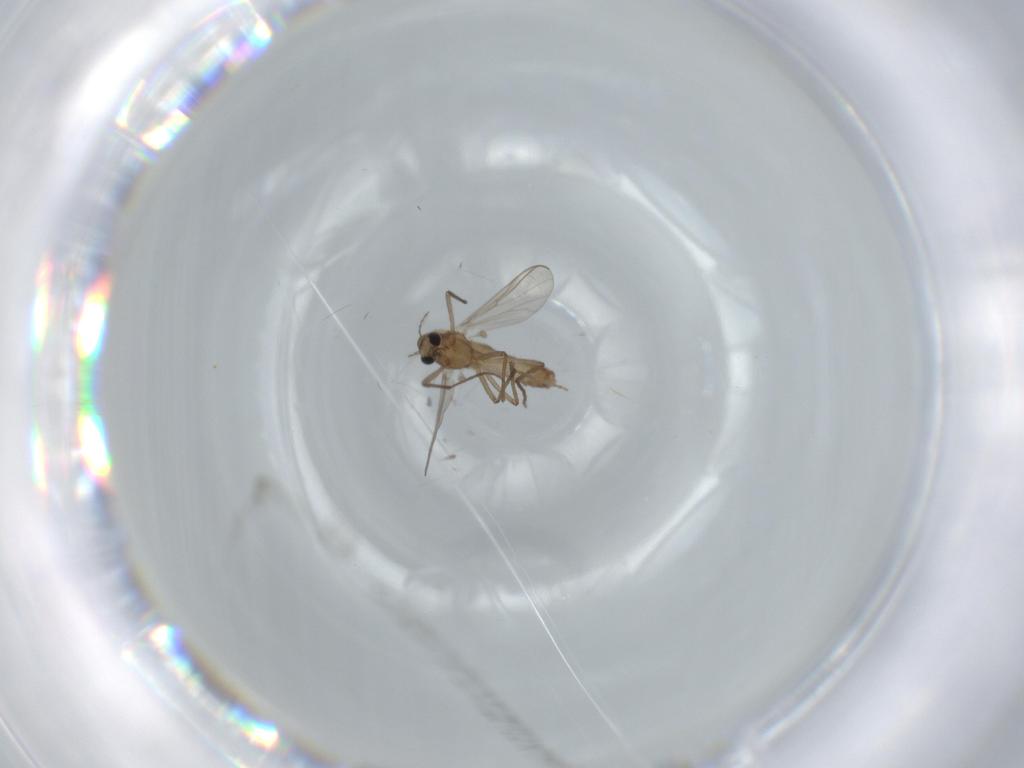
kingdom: Animalia
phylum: Arthropoda
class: Insecta
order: Diptera
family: Chironomidae
